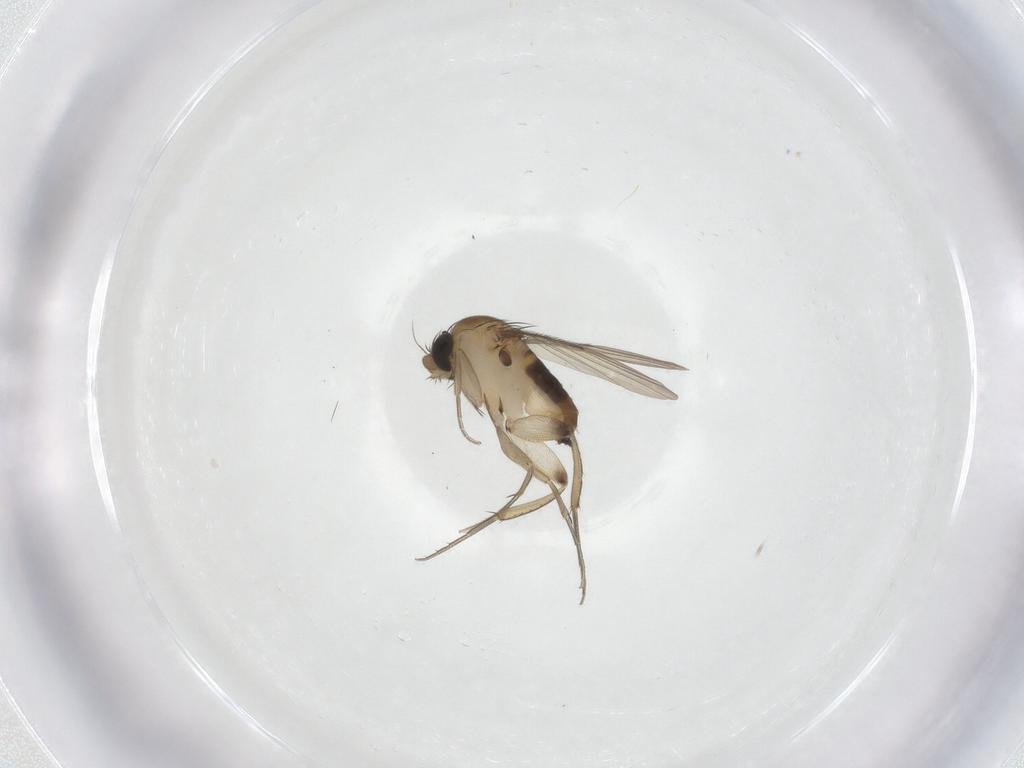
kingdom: Animalia
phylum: Arthropoda
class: Insecta
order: Diptera
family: Phoridae
